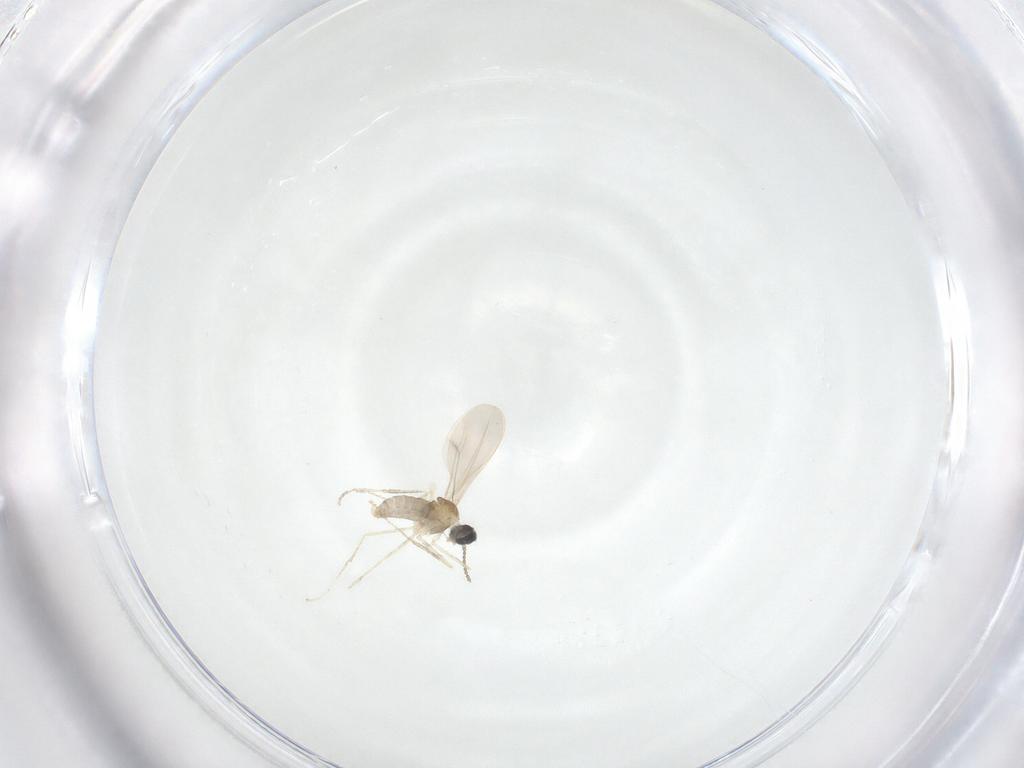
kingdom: Animalia
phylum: Arthropoda
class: Insecta
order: Diptera
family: Cecidomyiidae
